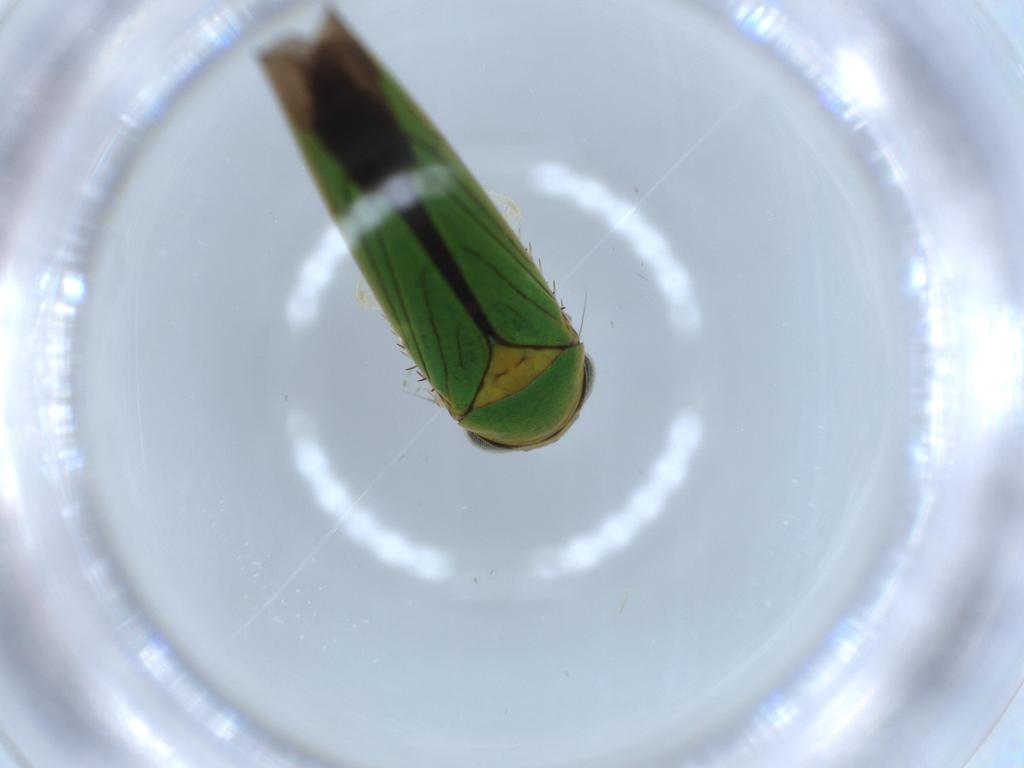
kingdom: Animalia
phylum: Arthropoda
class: Insecta
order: Hemiptera
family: Cicadellidae
